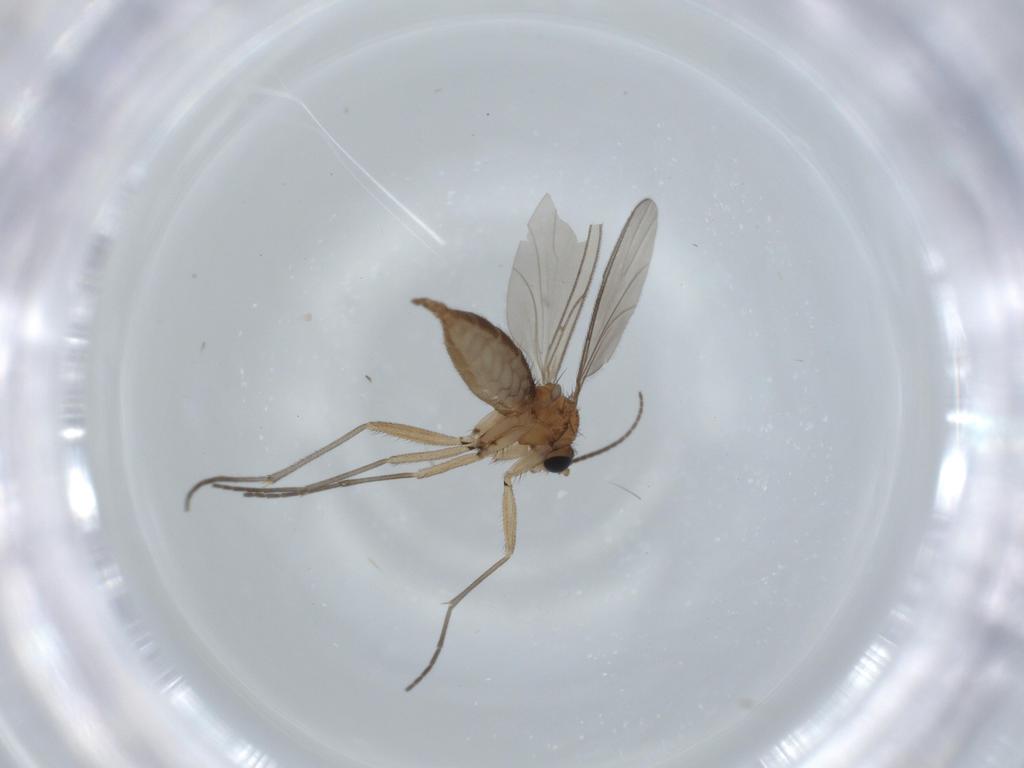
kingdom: Animalia
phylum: Arthropoda
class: Insecta
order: Diptera
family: Sciaridae
